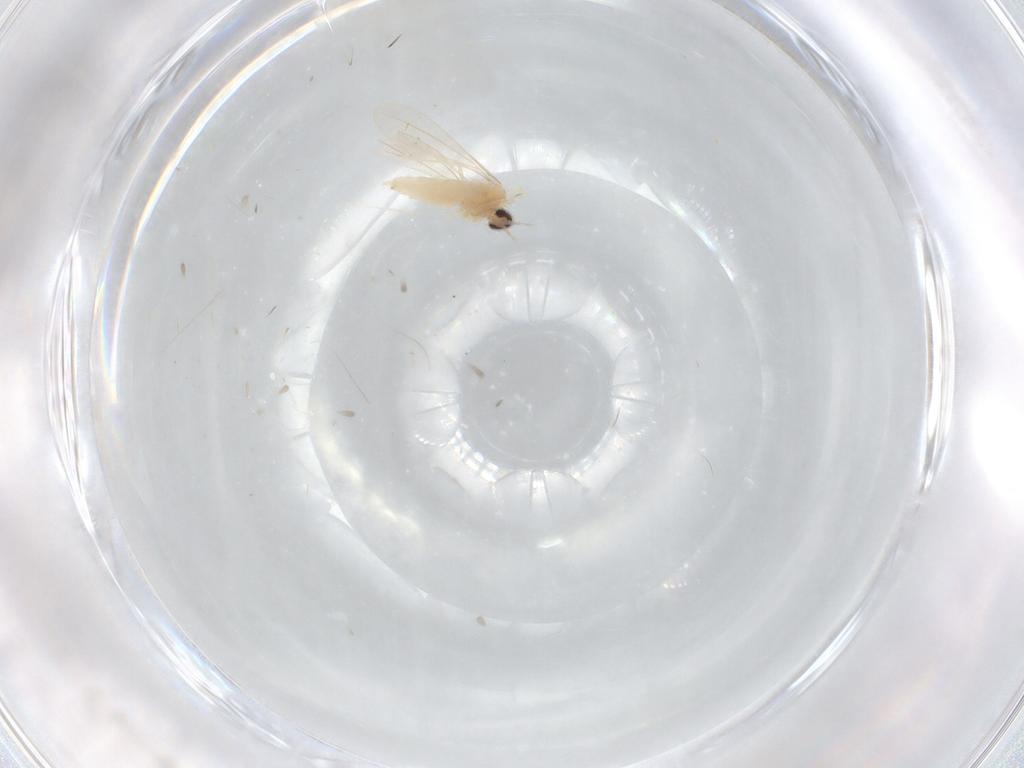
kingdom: Animalia
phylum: Arthropoda
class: Insecta
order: Diptera
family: Cecidomyiidae
